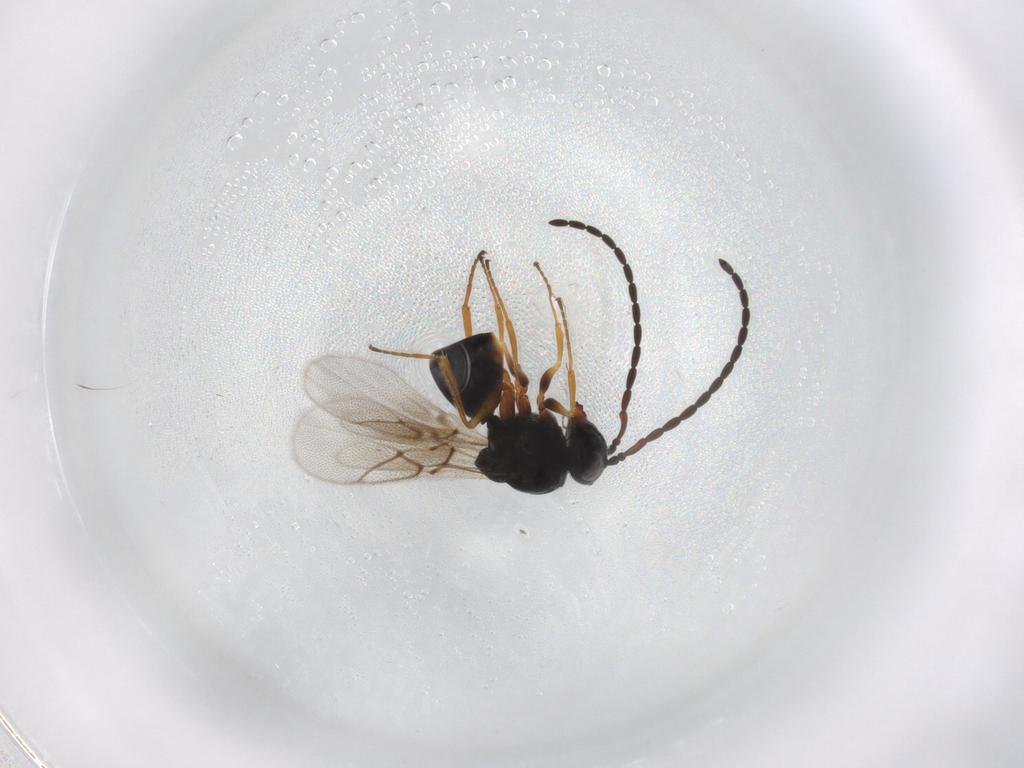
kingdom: Animalia
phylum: Arthropoda
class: Insecta
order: Hymenoptera
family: Figitidae
